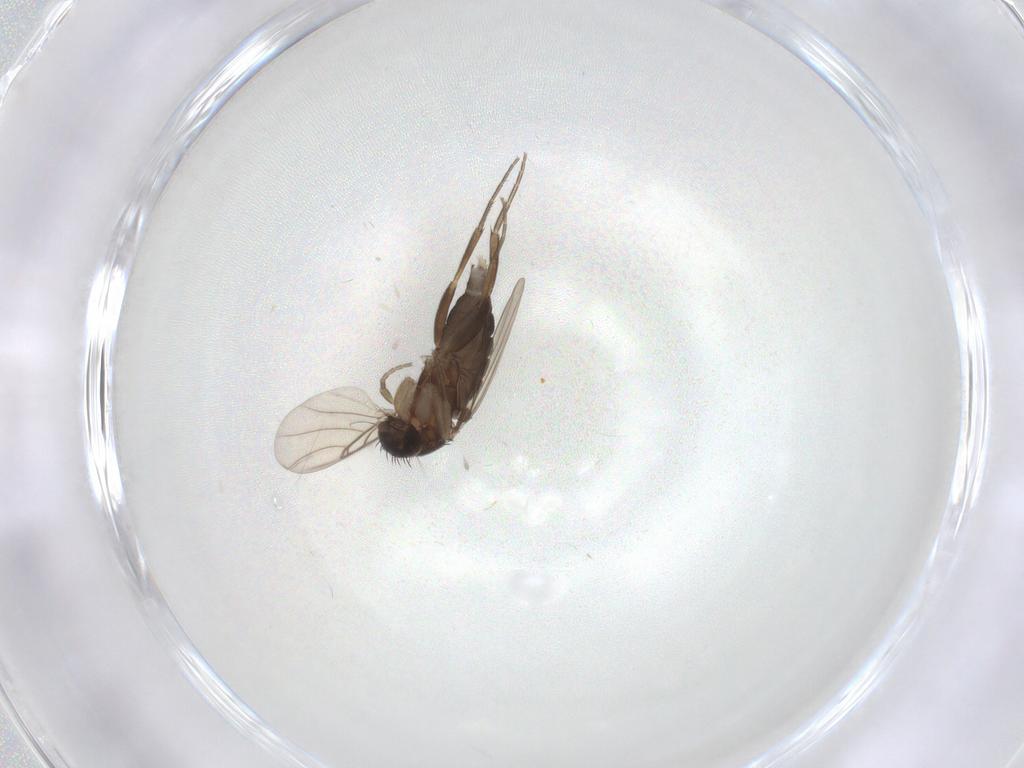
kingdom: Animalia
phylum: Arthropoda
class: Insecta
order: Diptera
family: Phoridae
